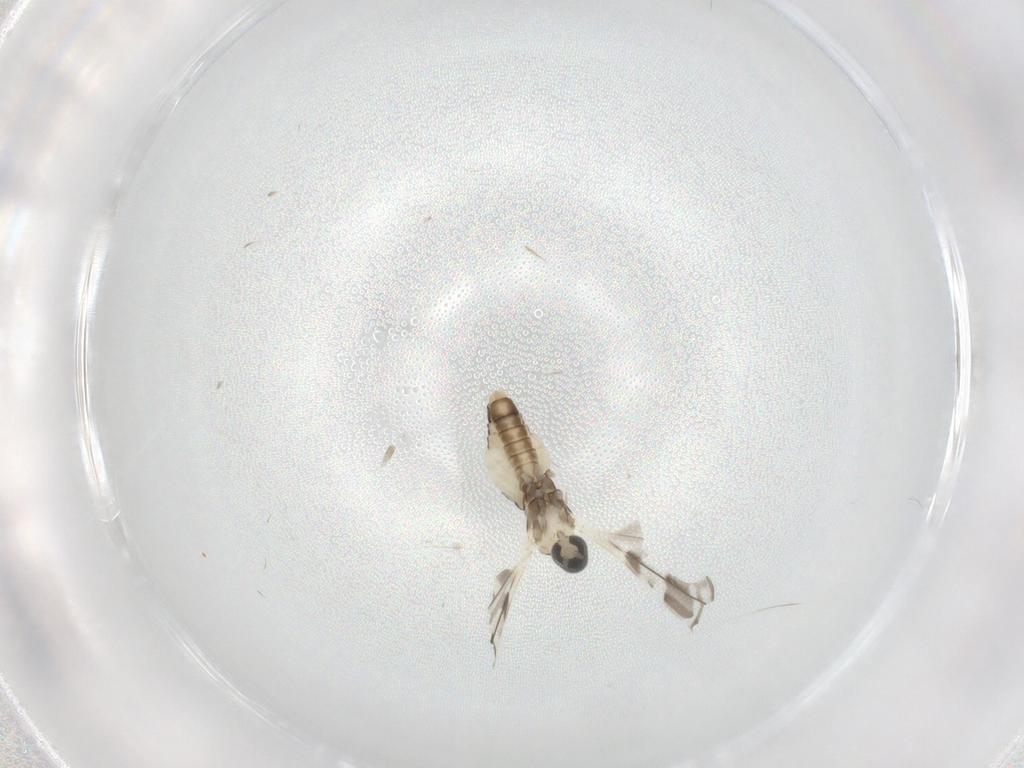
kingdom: Animalia
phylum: Arthropoda
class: Insecta
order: Diptera
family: Cecidomyiidae
